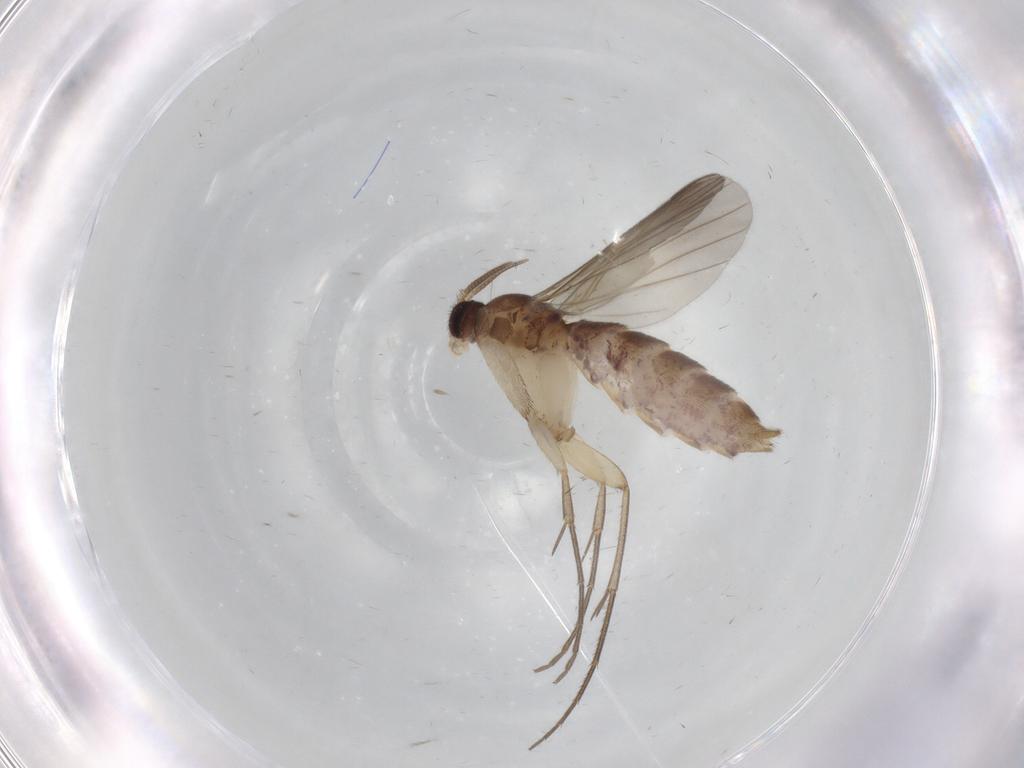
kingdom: Animalia
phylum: Arthropoda
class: Insecta
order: Diptera
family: Mycetophilidae
